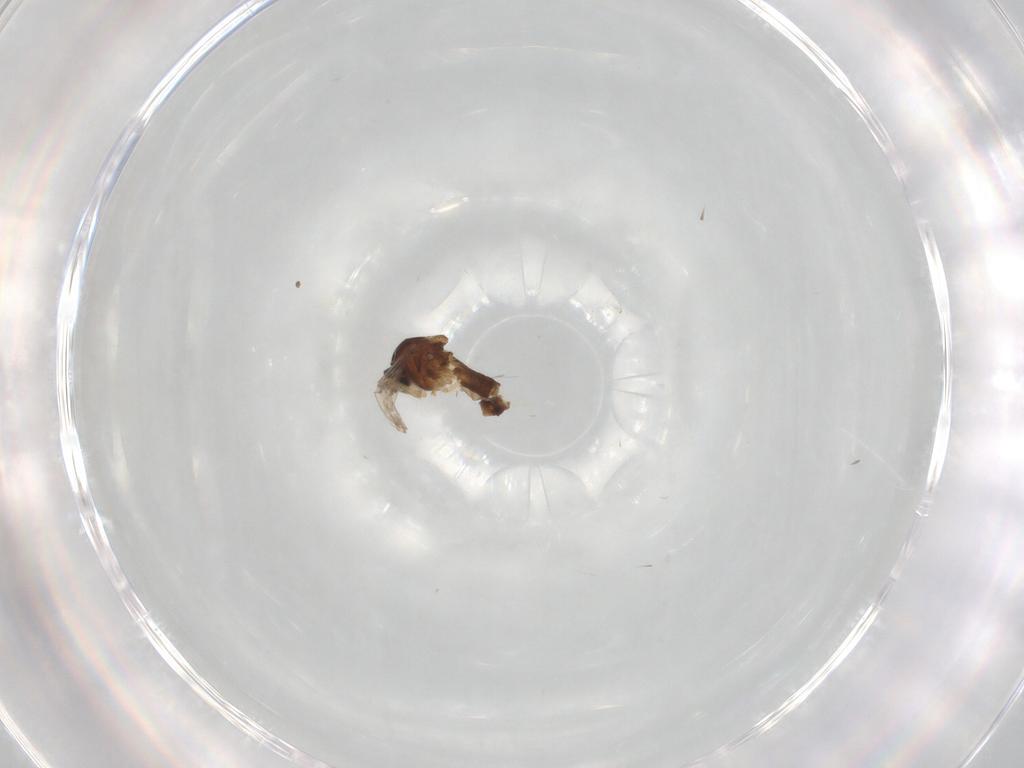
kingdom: Animalia
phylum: Arthropoda
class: Insecta
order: Diptera
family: Ceratopogonidae
